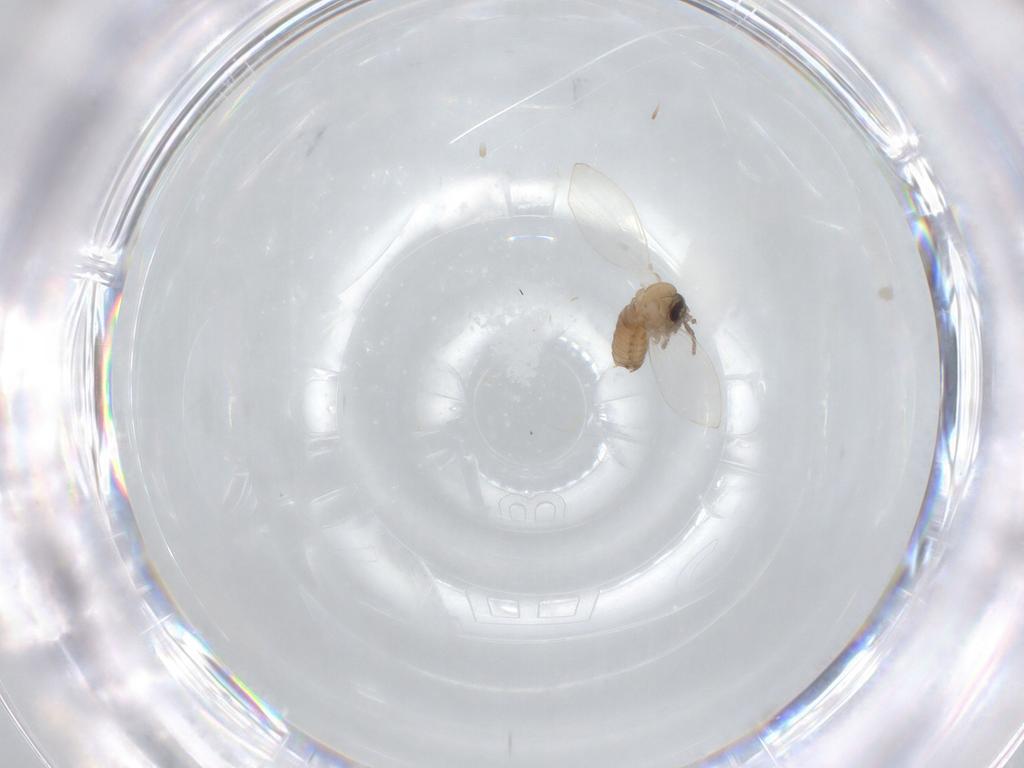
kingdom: Animalia
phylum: Arthropoda
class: Insecta
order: Diptera
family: Psychodidae
